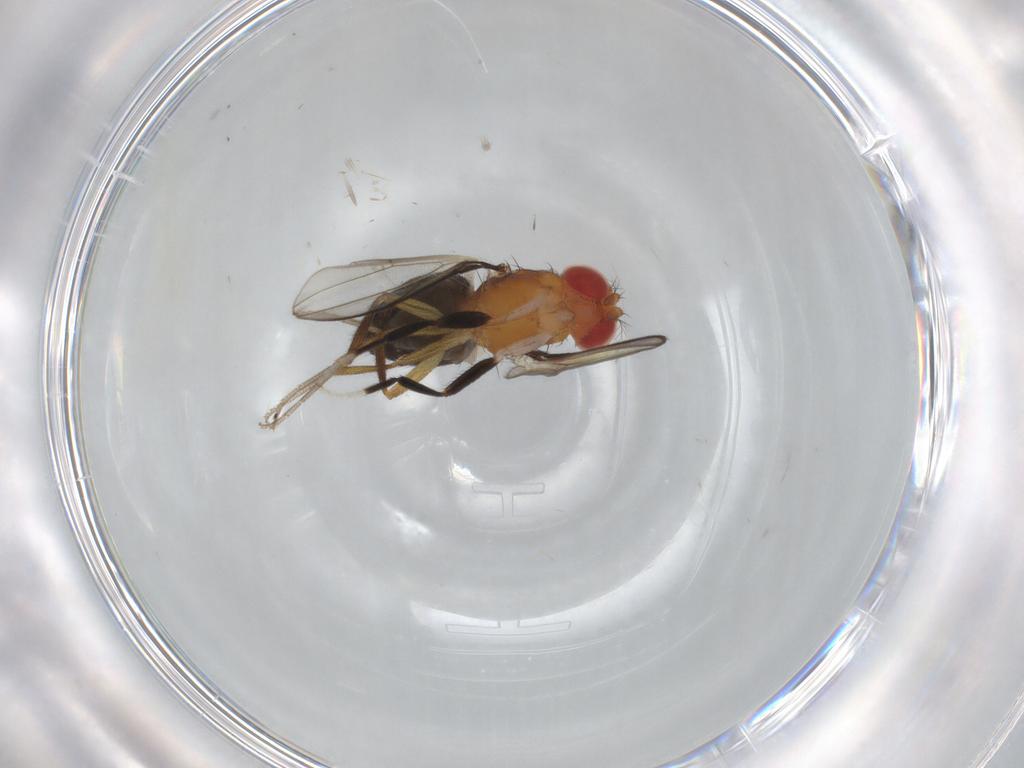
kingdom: Animalia
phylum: Arthropoda
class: Insecta
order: Diptera
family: Drosophilidae
